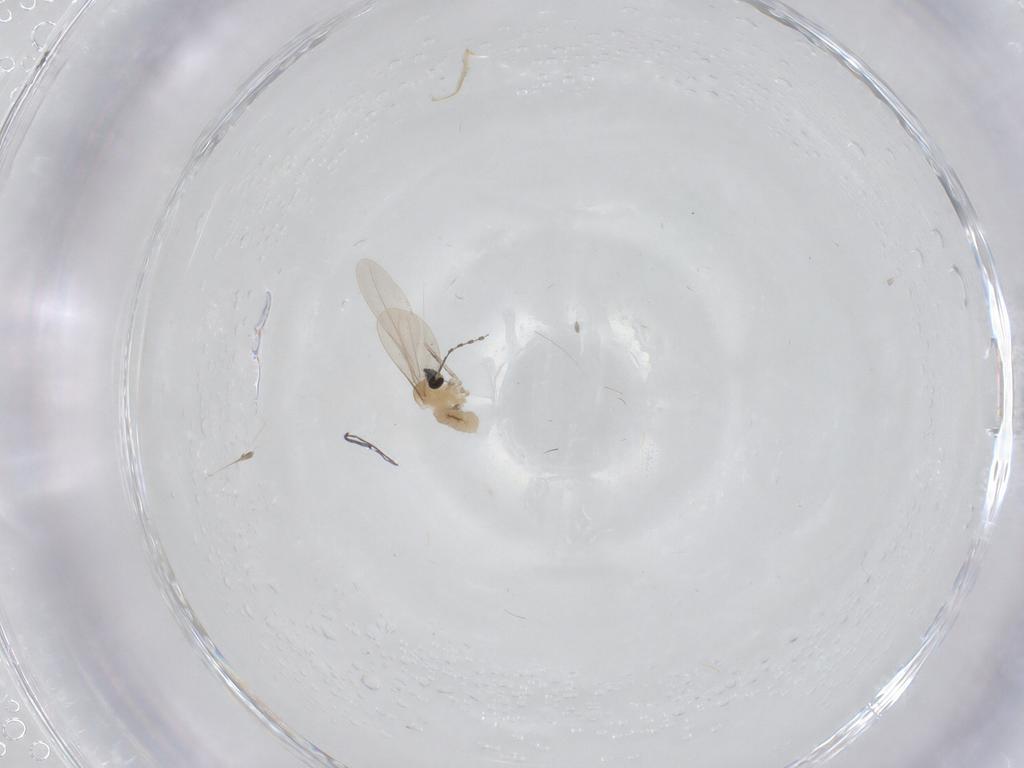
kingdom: Animalia
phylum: Arthropoda
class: Insecta
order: Diptera
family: Cecidomyiidae
